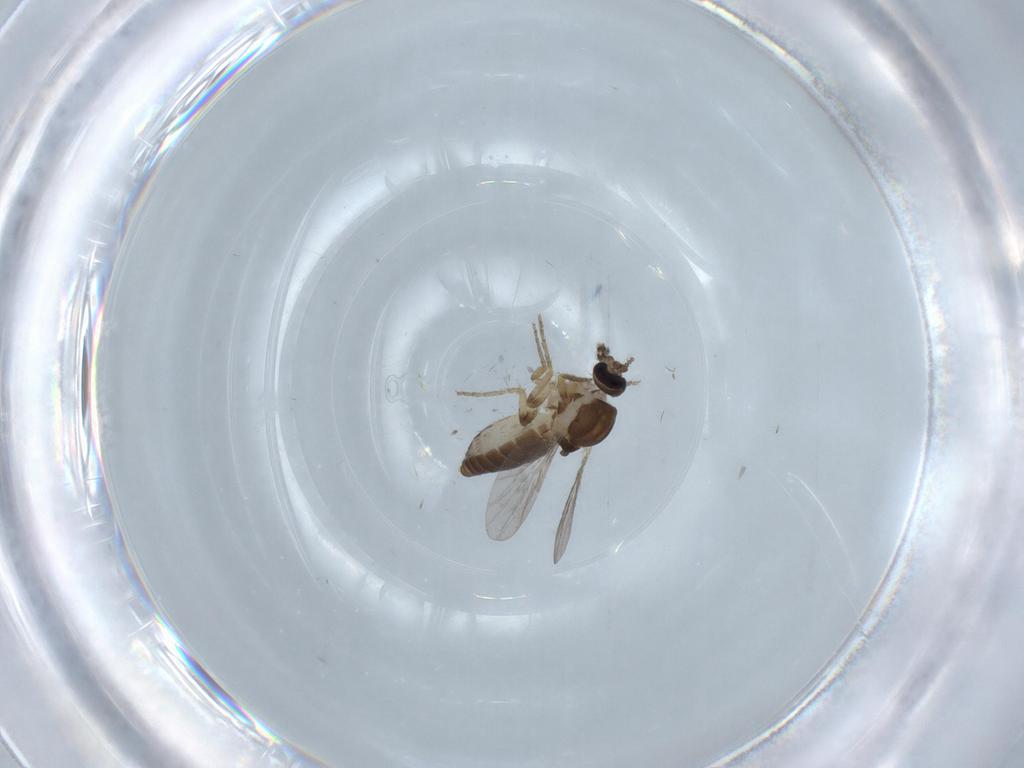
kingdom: Animalia
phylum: Arthropoda
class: Insecta
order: Diptera
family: Ceratopogonidae
